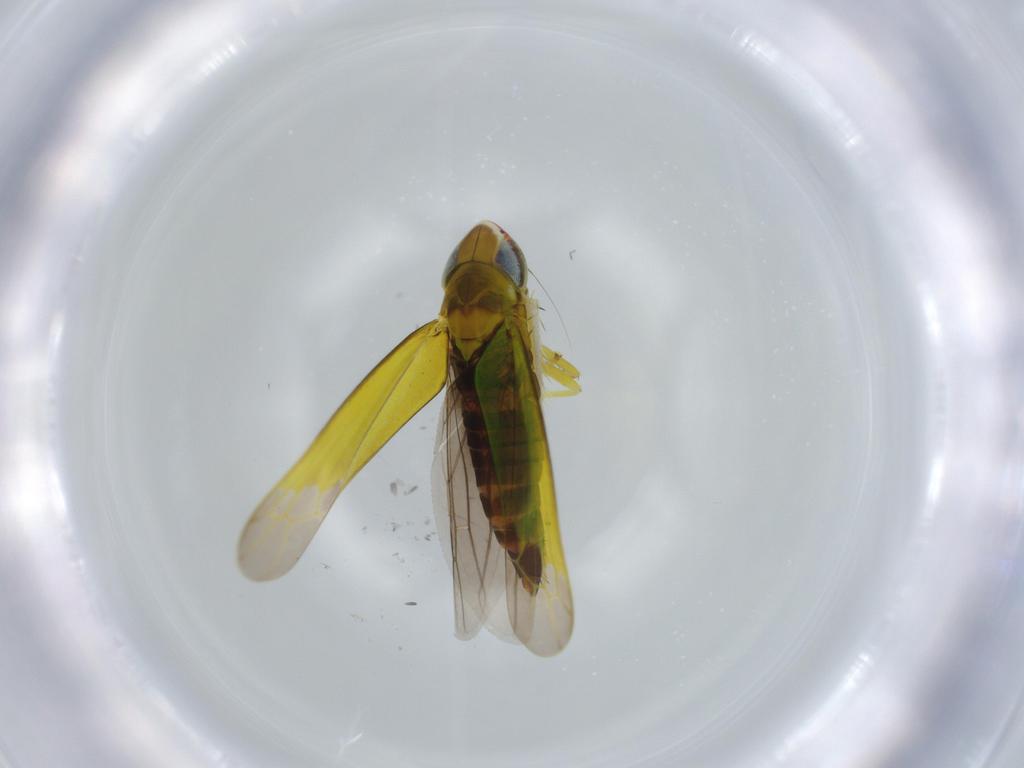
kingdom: Animalia
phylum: Arthropoda
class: Insecta
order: Hemiptera
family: Cicadellidae
